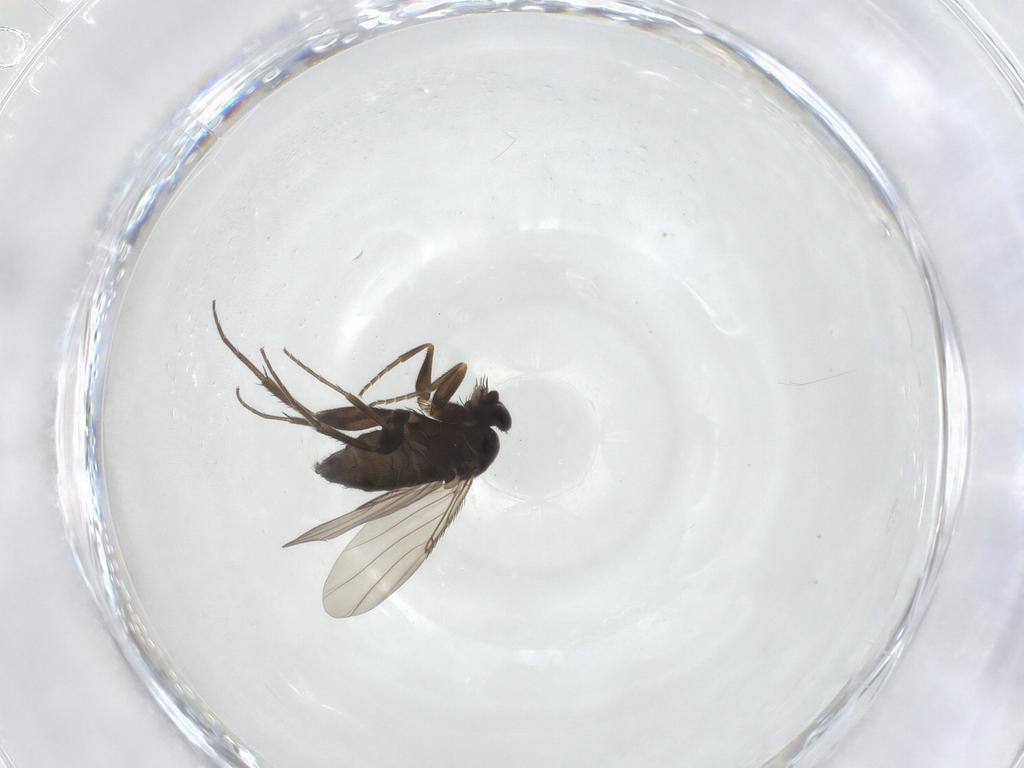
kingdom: Animalia
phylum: Arthropoda
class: Insecta
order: Diptera
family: Phoridae
